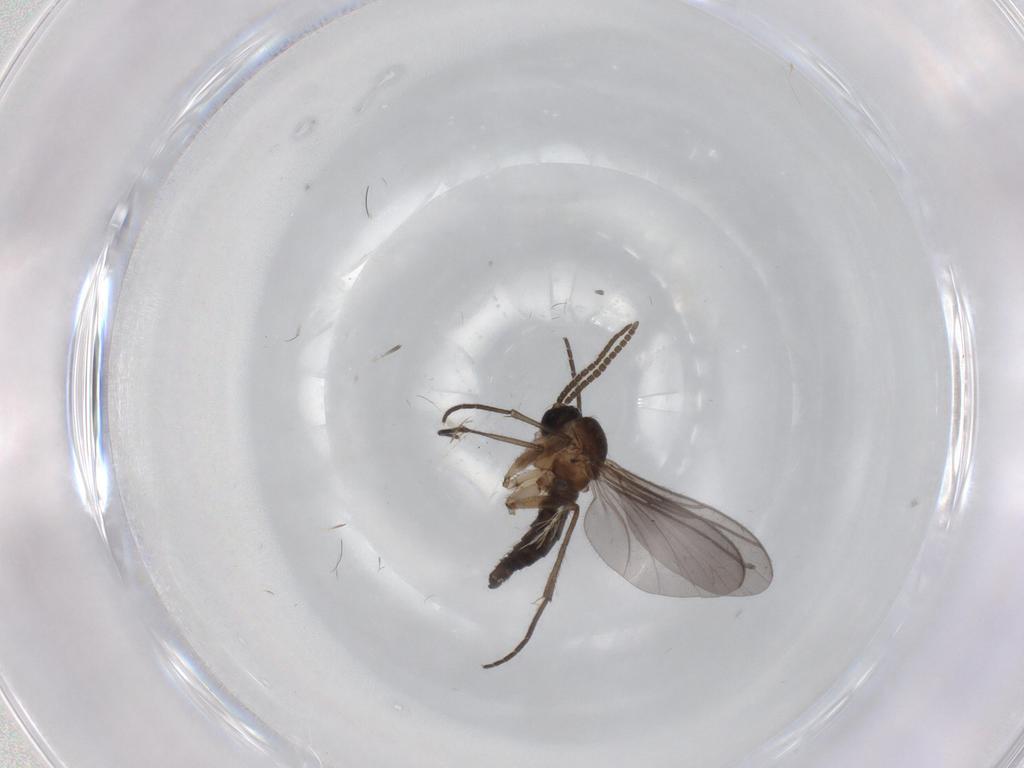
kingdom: Animalia
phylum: Arthropoda
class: Insecta
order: Diptera
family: Sciaridae
